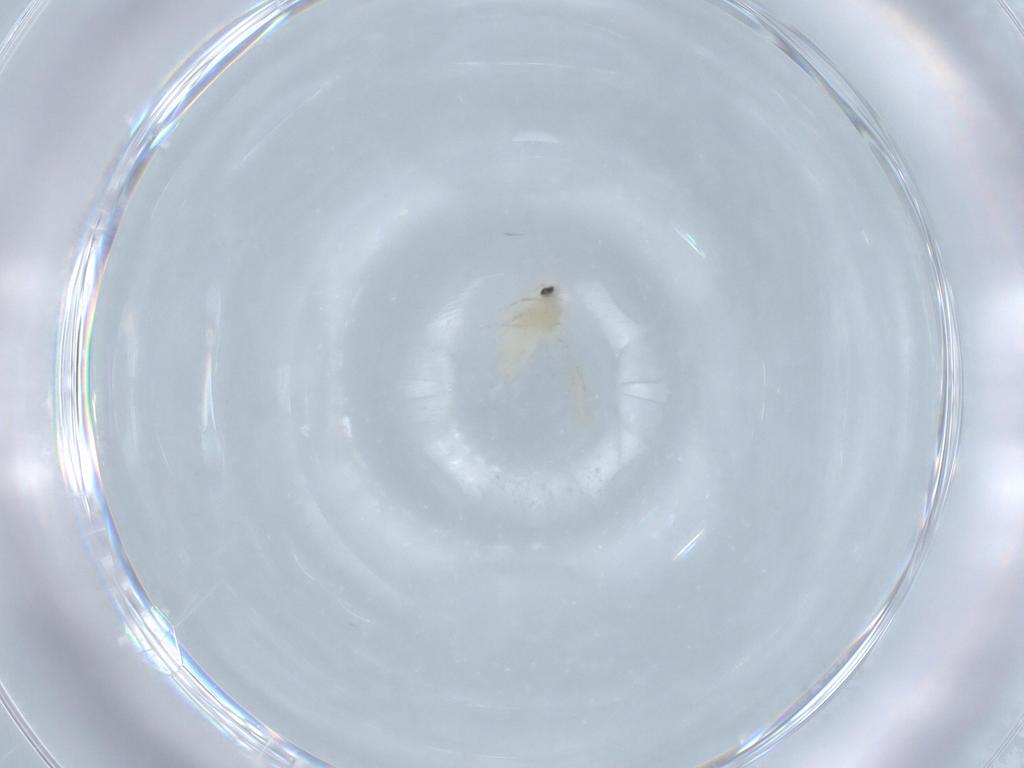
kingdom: Animalia
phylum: Arthropoda
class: Insecta
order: Hemiptera
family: Aleyrodidae
